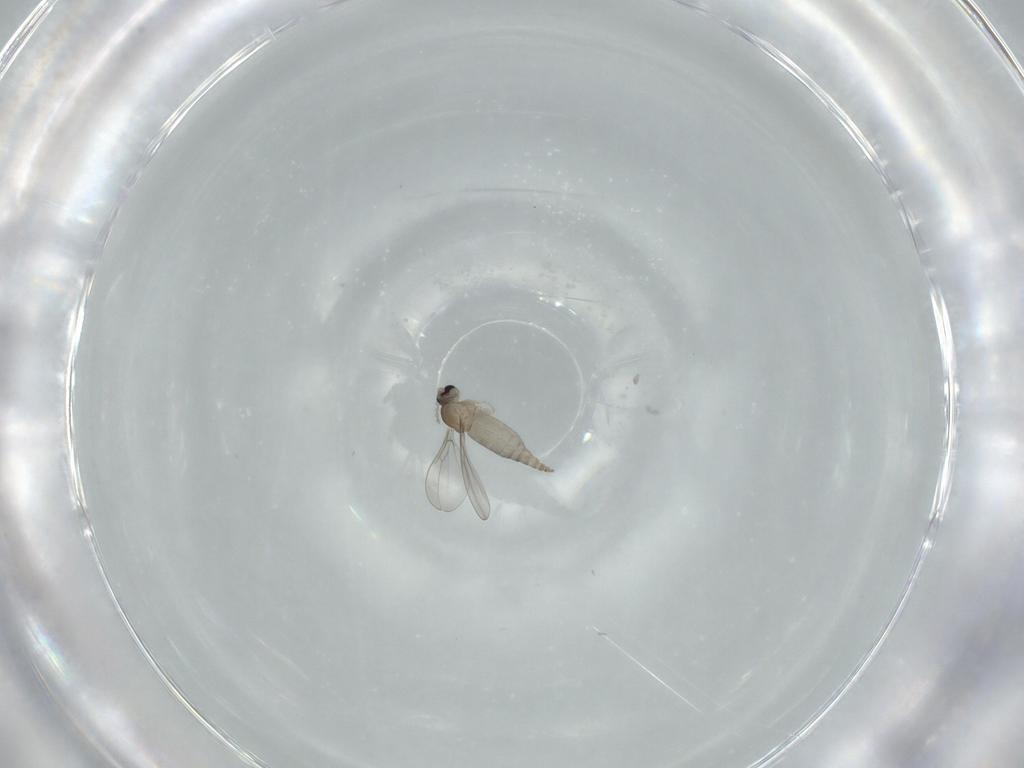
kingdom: Animalia
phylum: Arthropoda
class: Insecta
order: Diptera
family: Cecidomyiidae
